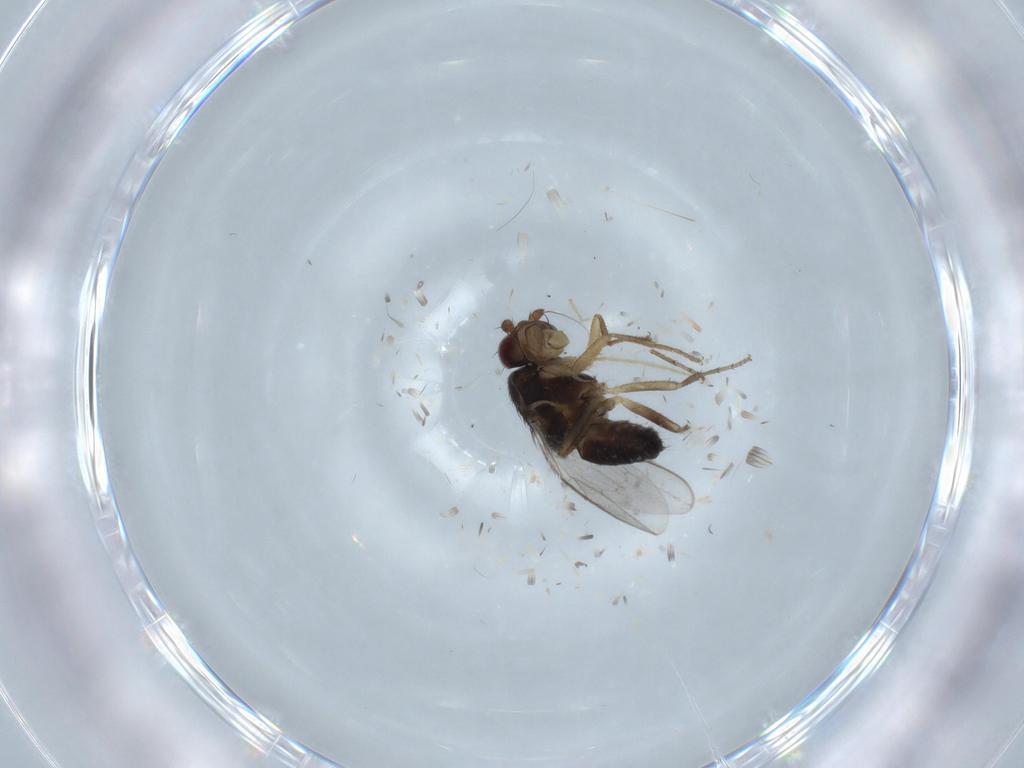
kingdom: Animalia
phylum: Arthropoda
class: Insecta
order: Diptera
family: Sphaeroceridae
